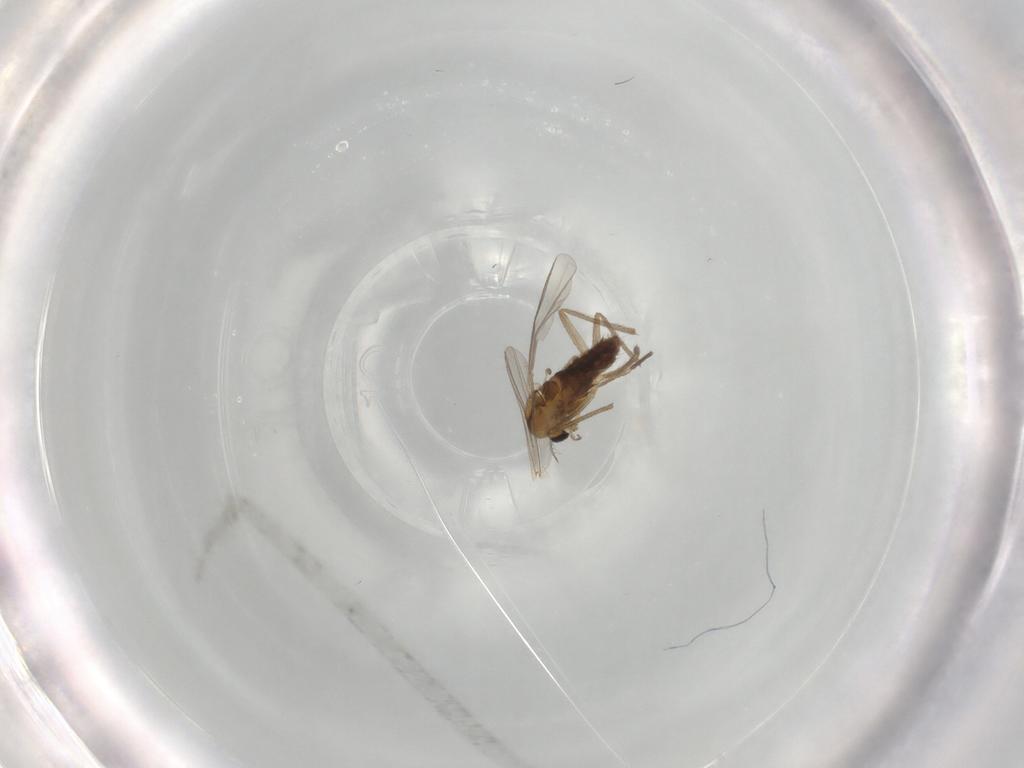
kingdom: Animalia
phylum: Arthropoda
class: Insecta
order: Diptera
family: Chironomidae
